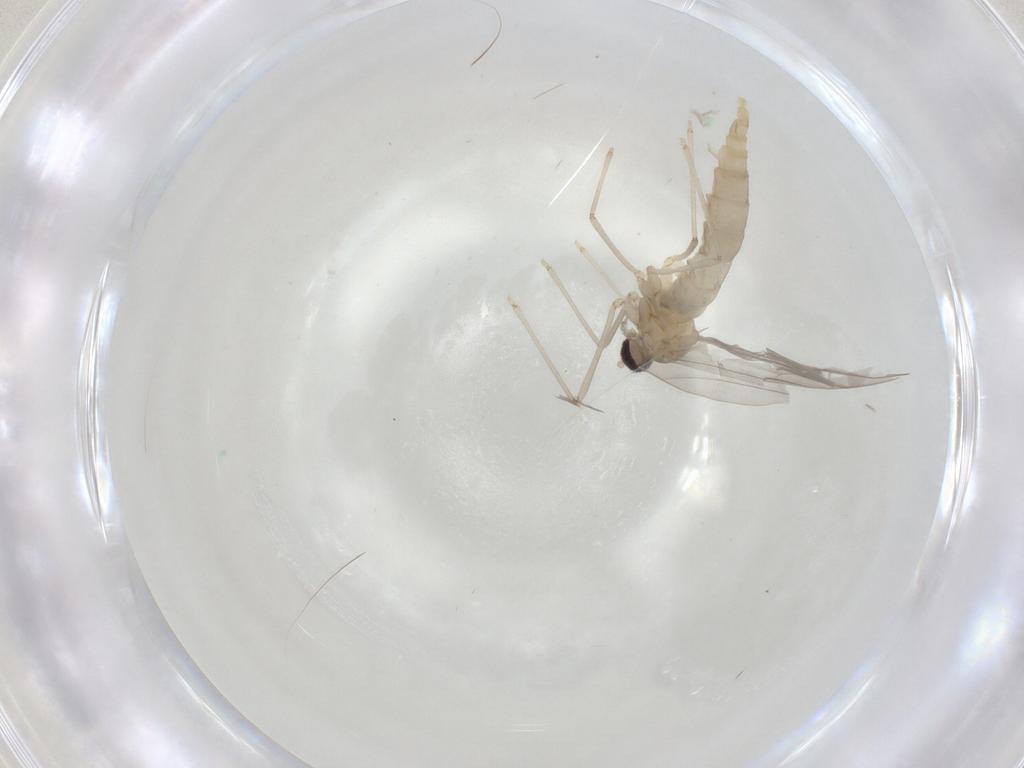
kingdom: Animalia
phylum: Arthropoda
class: Insecta
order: Diptera
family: Cecidomyiidae
